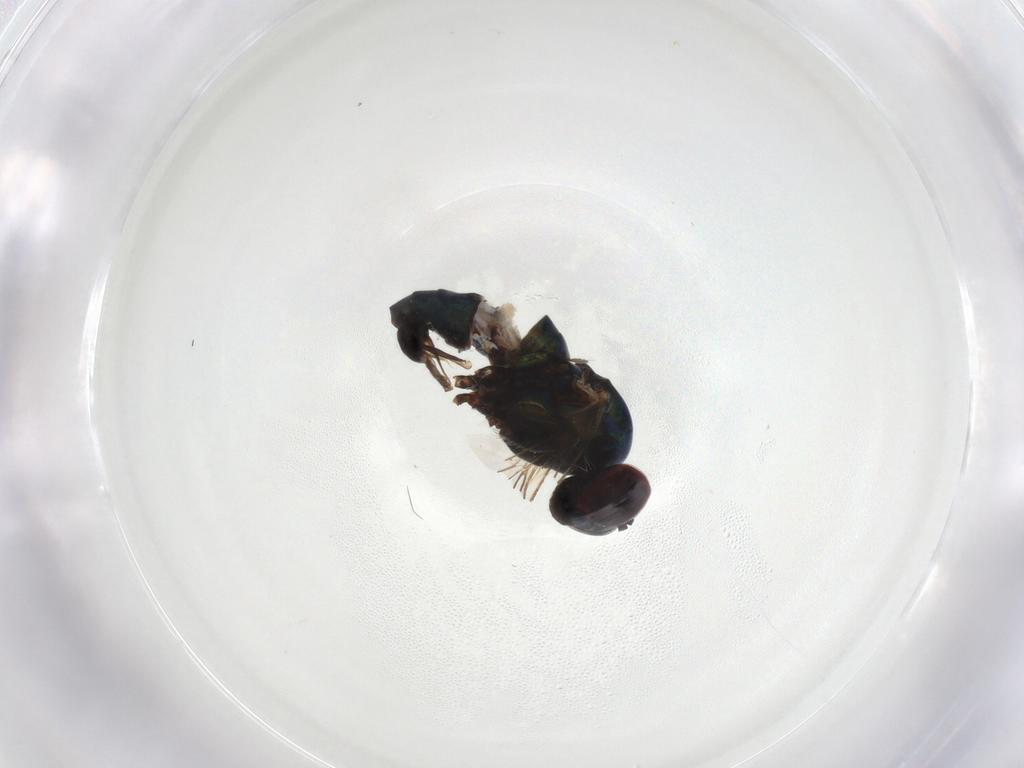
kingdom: Animalia
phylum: Arthropoda
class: Insecta
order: Diptera
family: Dolichopodidae
